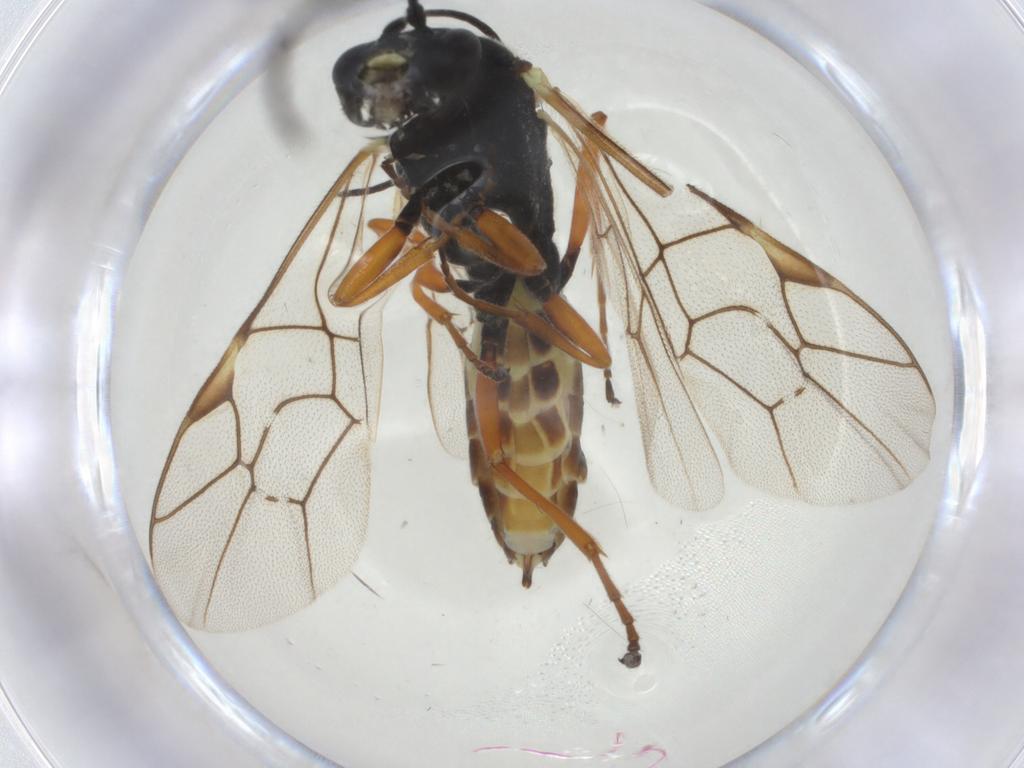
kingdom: Animalia
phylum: Arthropoda
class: Insecta
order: Hymenoptera
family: Ichneumonidae
